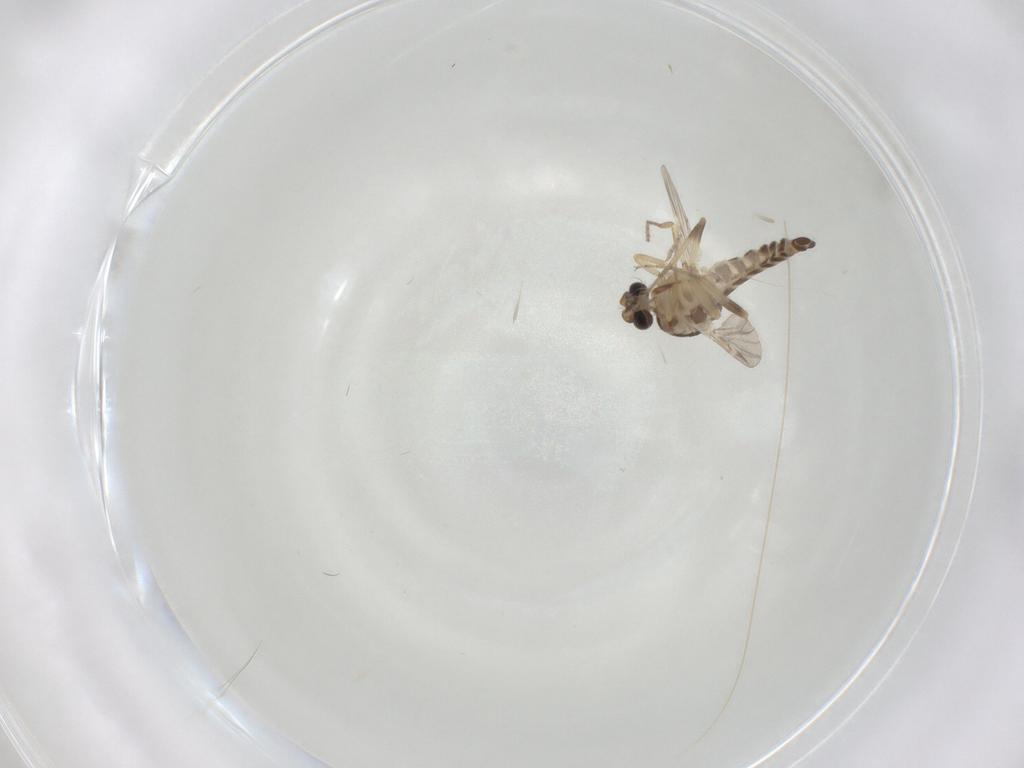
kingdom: Animalia
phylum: Arthropoda
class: Insecta
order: Diptera
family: Ceratopogonidae
